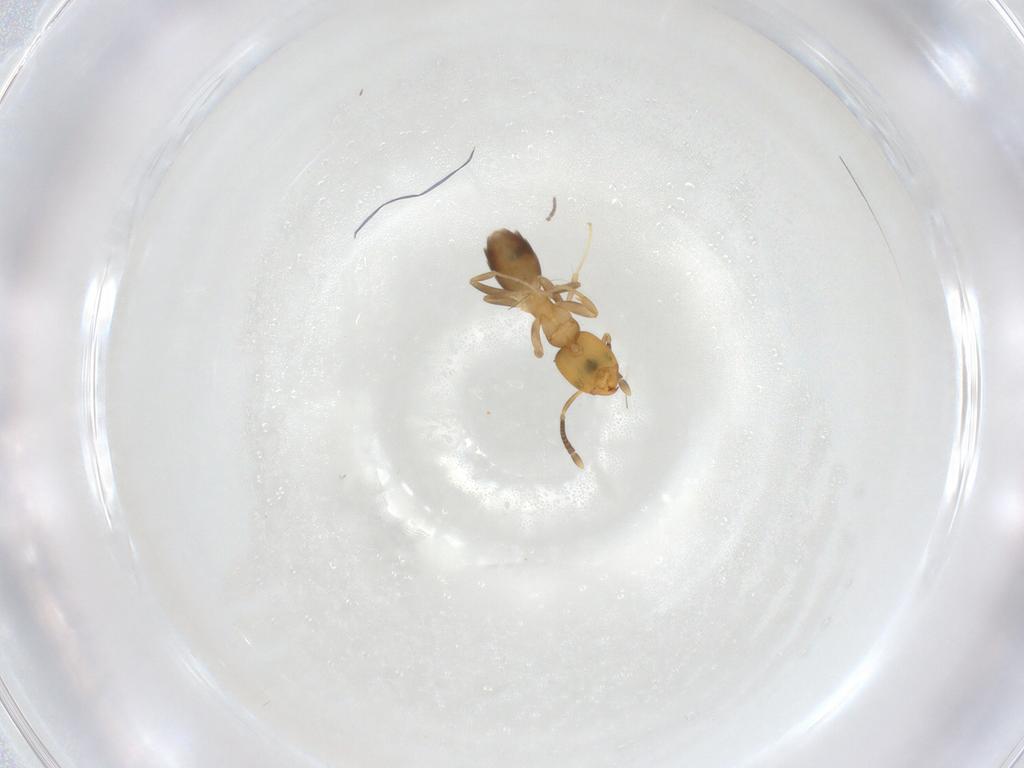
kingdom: Animalia
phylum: Arthropoda
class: Insecta
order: Hymenoptera
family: Formicidae
